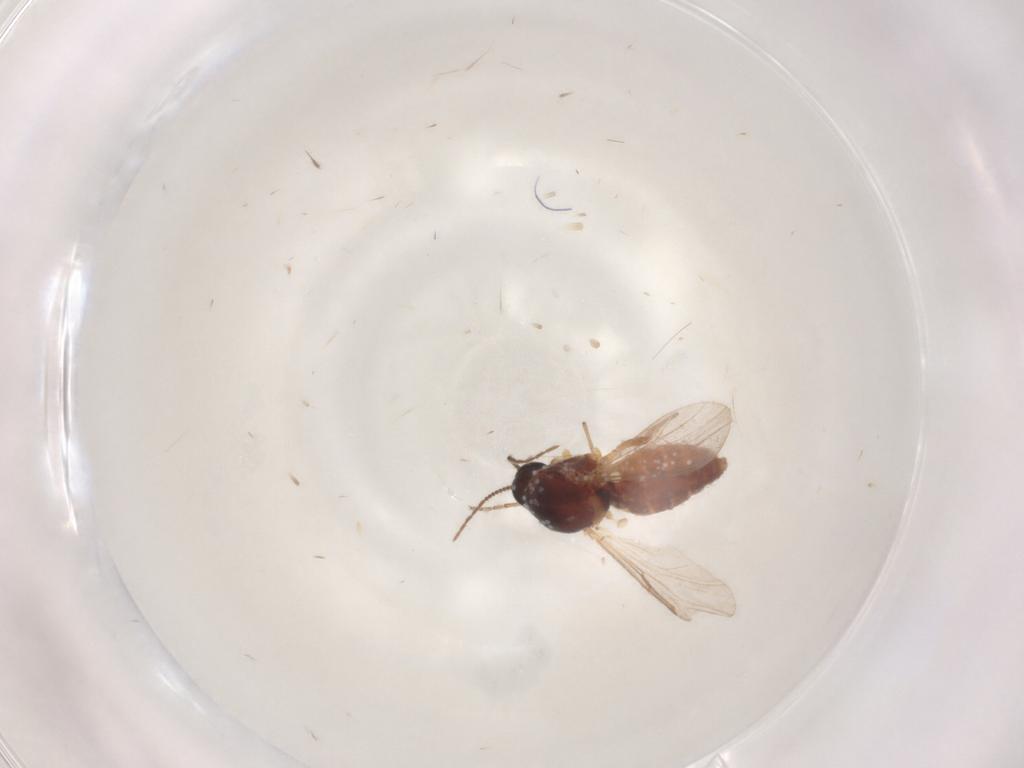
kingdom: Animalia
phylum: Arthropoda
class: Insecta
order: Diptera
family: Ceratopogonidae
